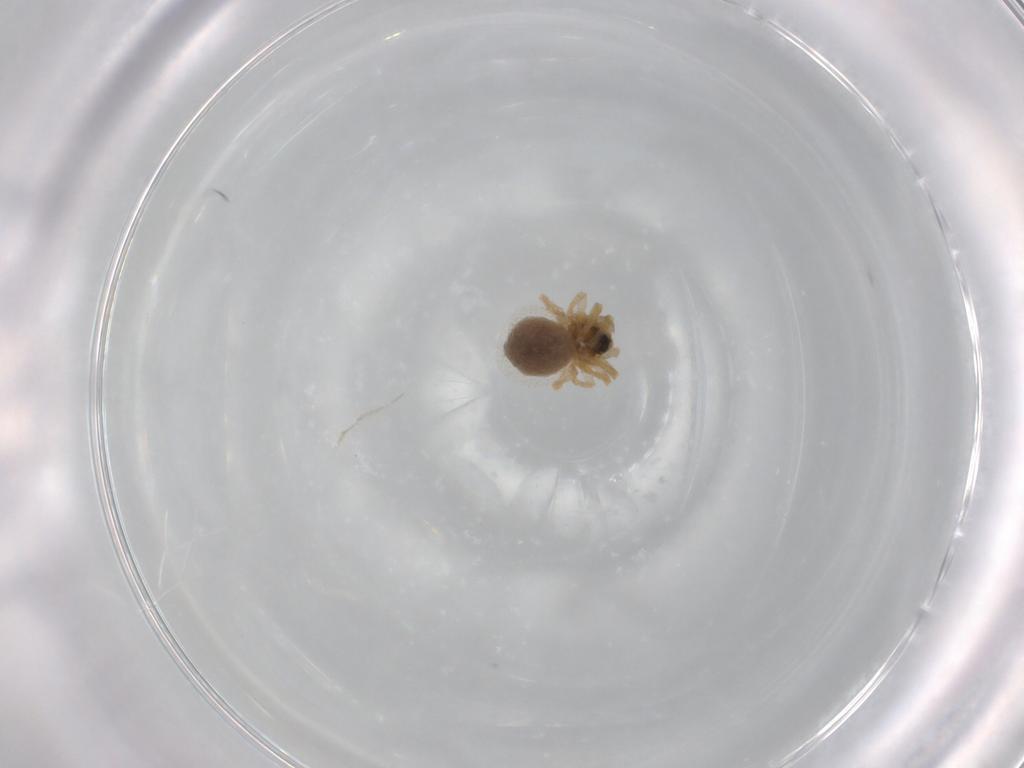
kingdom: Animalia
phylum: Arthropoda
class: Arachnida
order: Araneae
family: Linyphiidae
